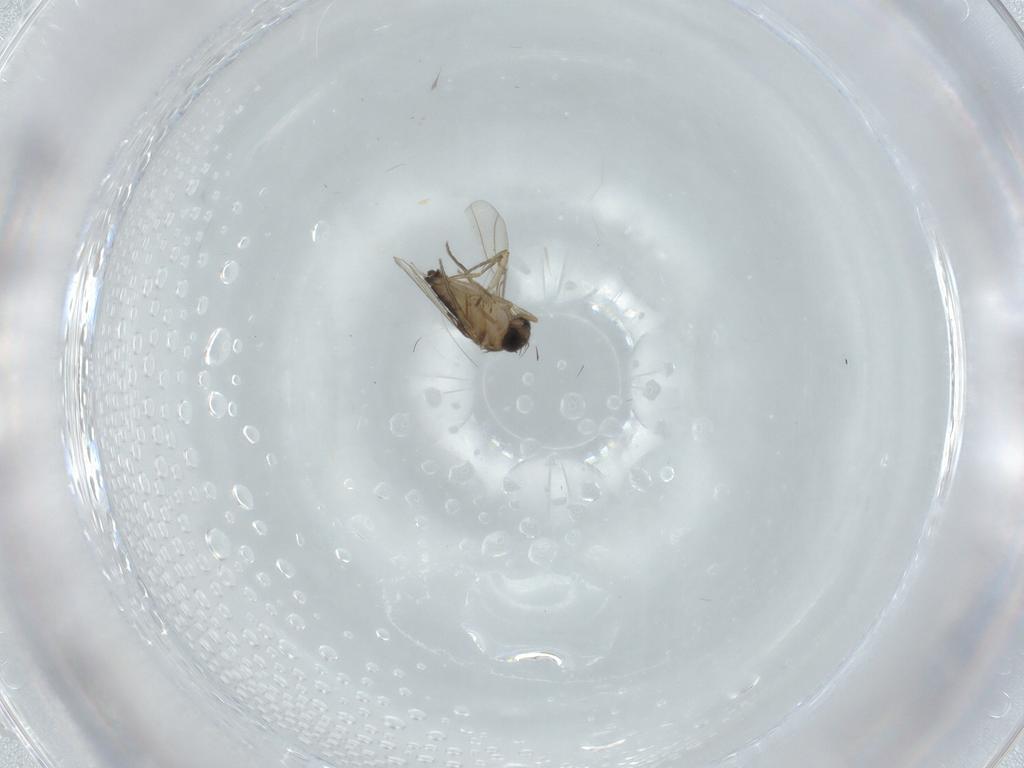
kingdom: Animalia
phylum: Arthropoda
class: Insecta
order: Diptera
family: Phoridae
